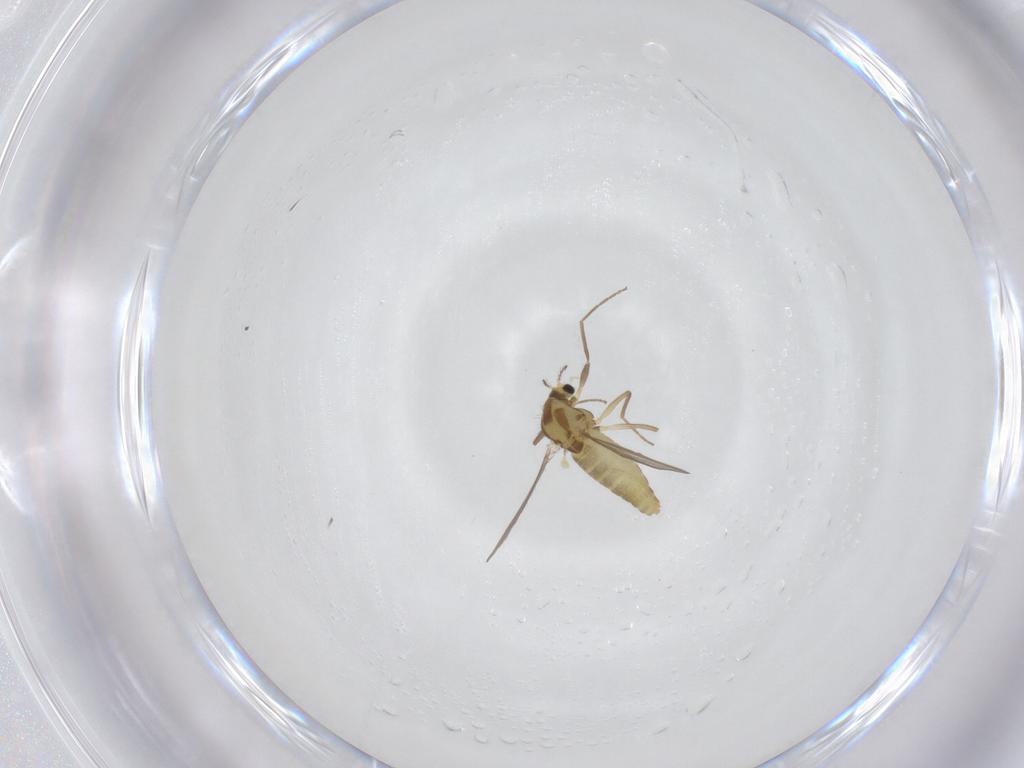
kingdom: Animalia
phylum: Arthropoda
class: Insecta
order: Diptera
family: Chironomidae
